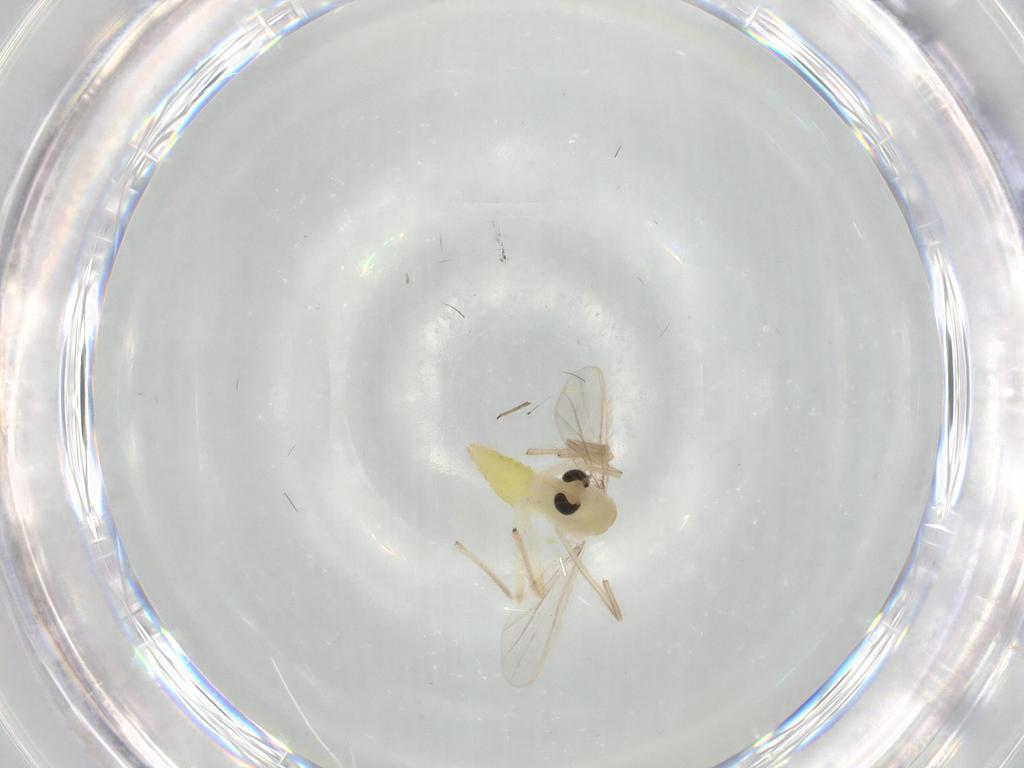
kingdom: Animalia
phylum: Arthropoda
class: Insecta
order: Diptera
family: Chironomidae
